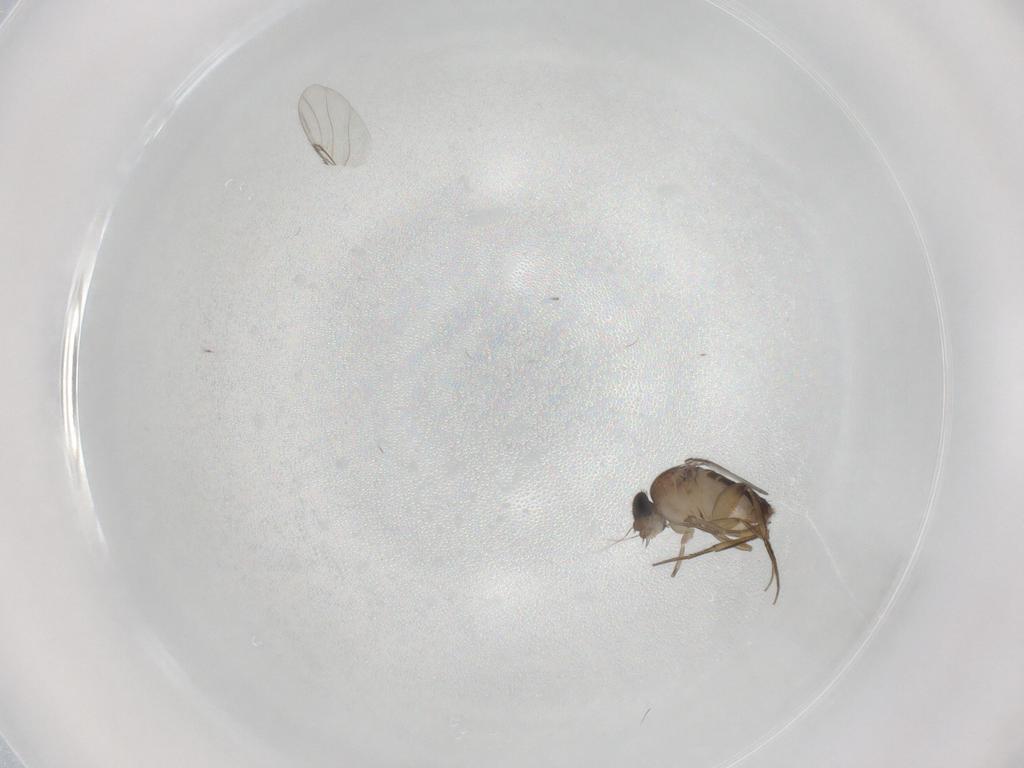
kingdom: Animalia
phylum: Arthropoda
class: Insecta
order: Diptera
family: Phoridae
